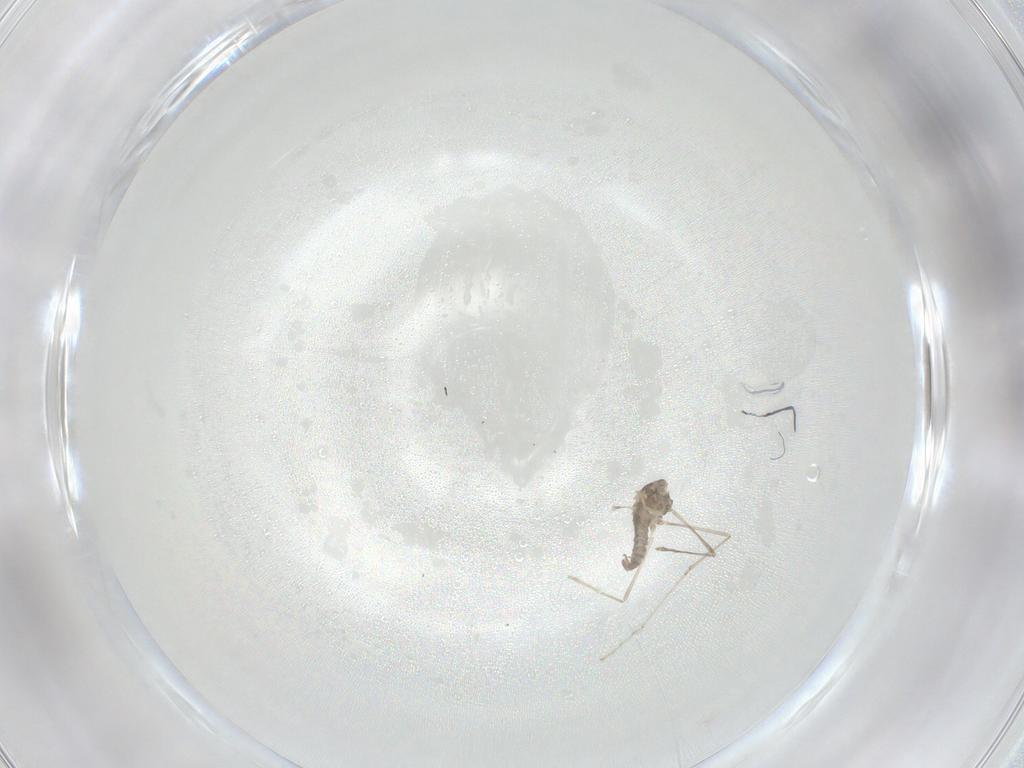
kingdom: Animalia
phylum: Arthropoda
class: Insecta
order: Diptera
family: Cecidomyiidae
